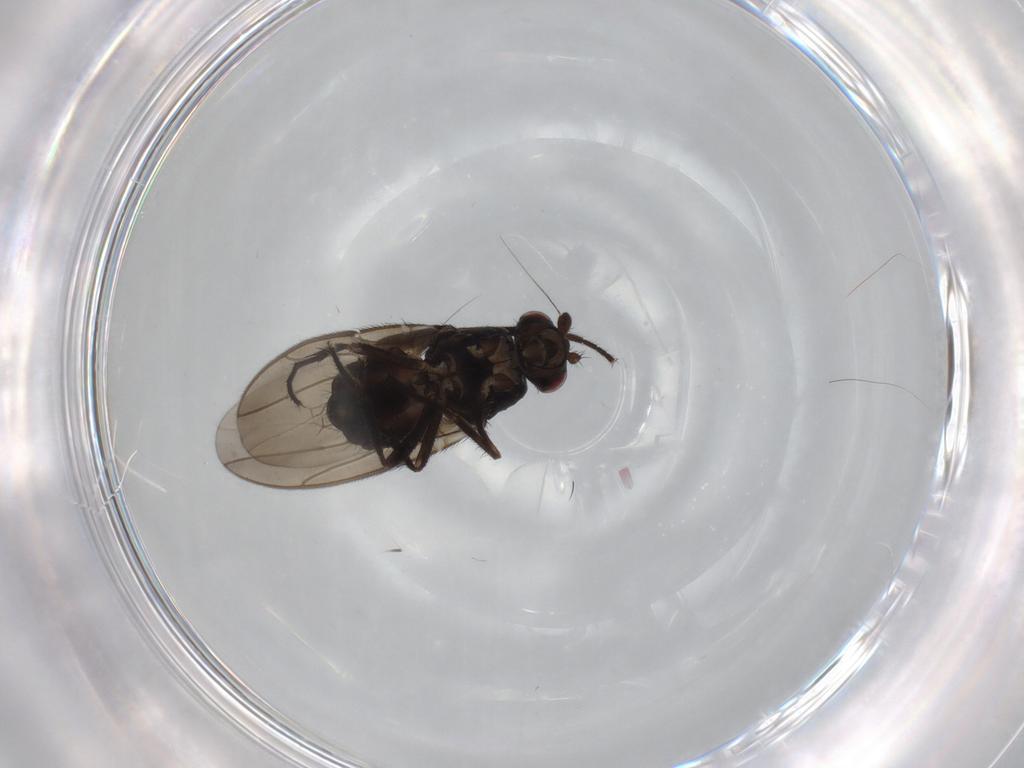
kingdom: Animalia
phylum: Arthropoda
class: Insecta
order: Diptera
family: Sphaeroceridae
